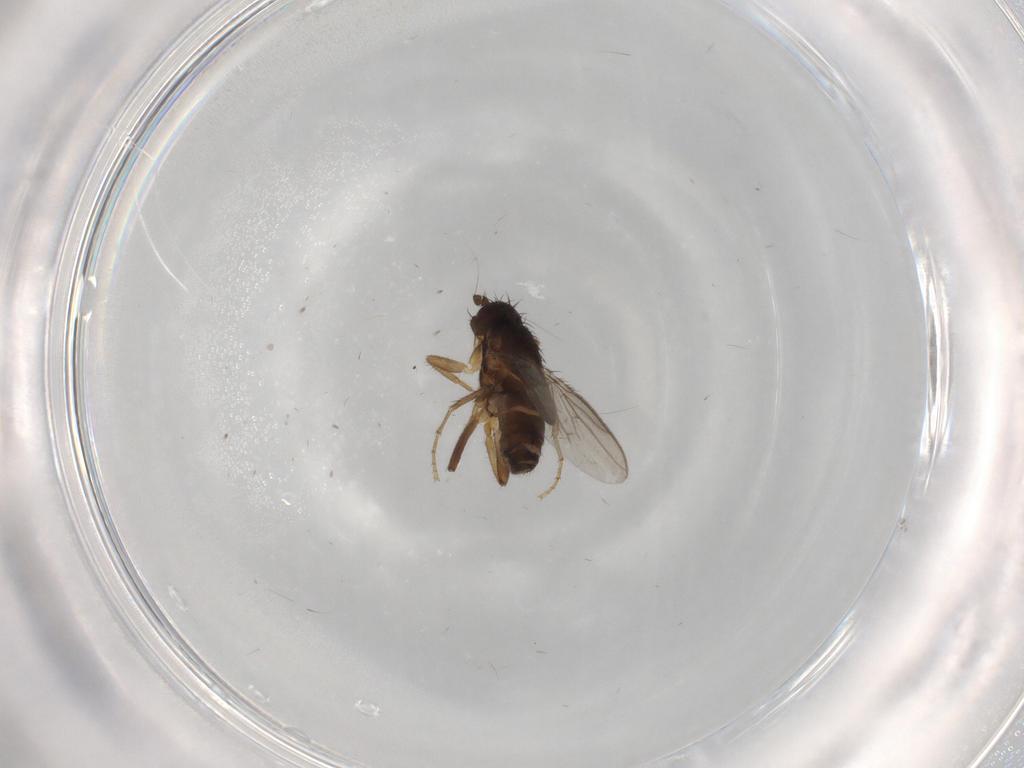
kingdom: Animalia
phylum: Arthropoda
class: Insecta
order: Diptera
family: Sphaeroceridae
